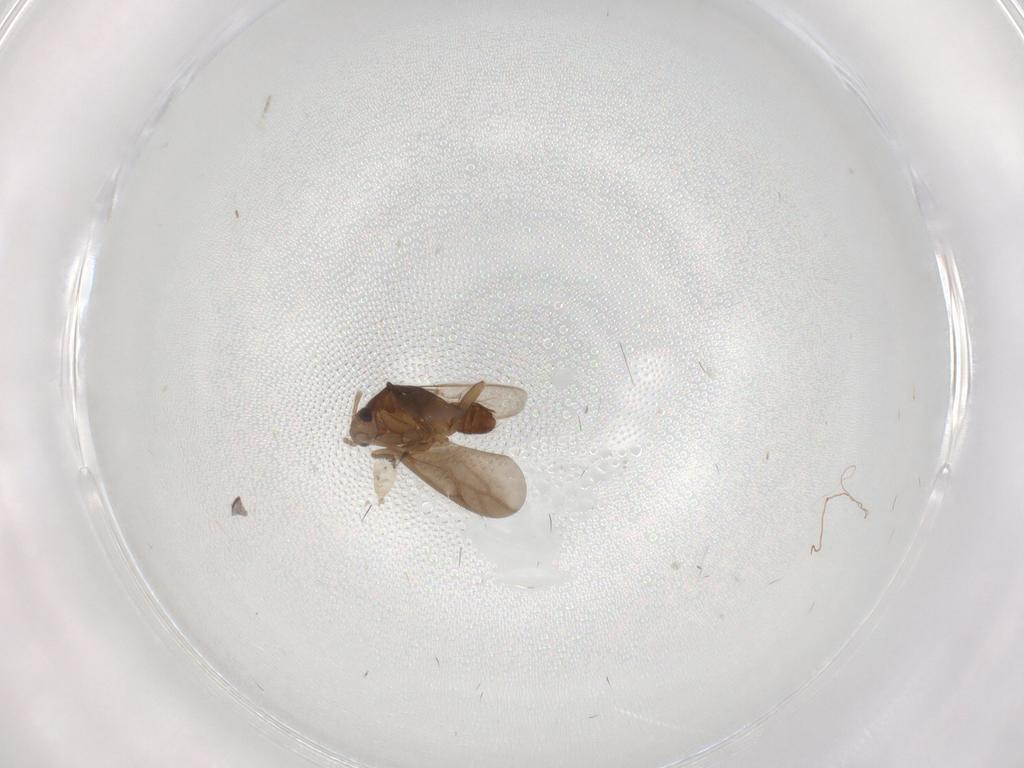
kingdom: Animalia
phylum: Arthropoda
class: Insecta
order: Hemiptera
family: Ceratocombidae
